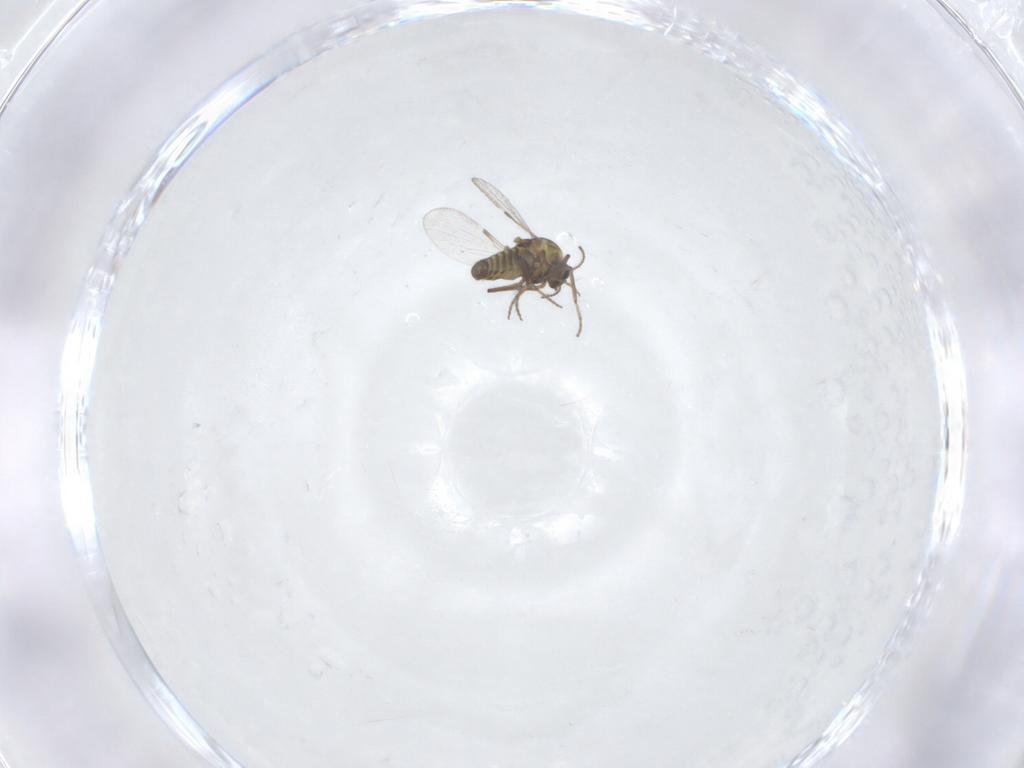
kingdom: Animalia
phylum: Arthropoda
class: Insecta
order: Diptera
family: Ceratopogonidae
